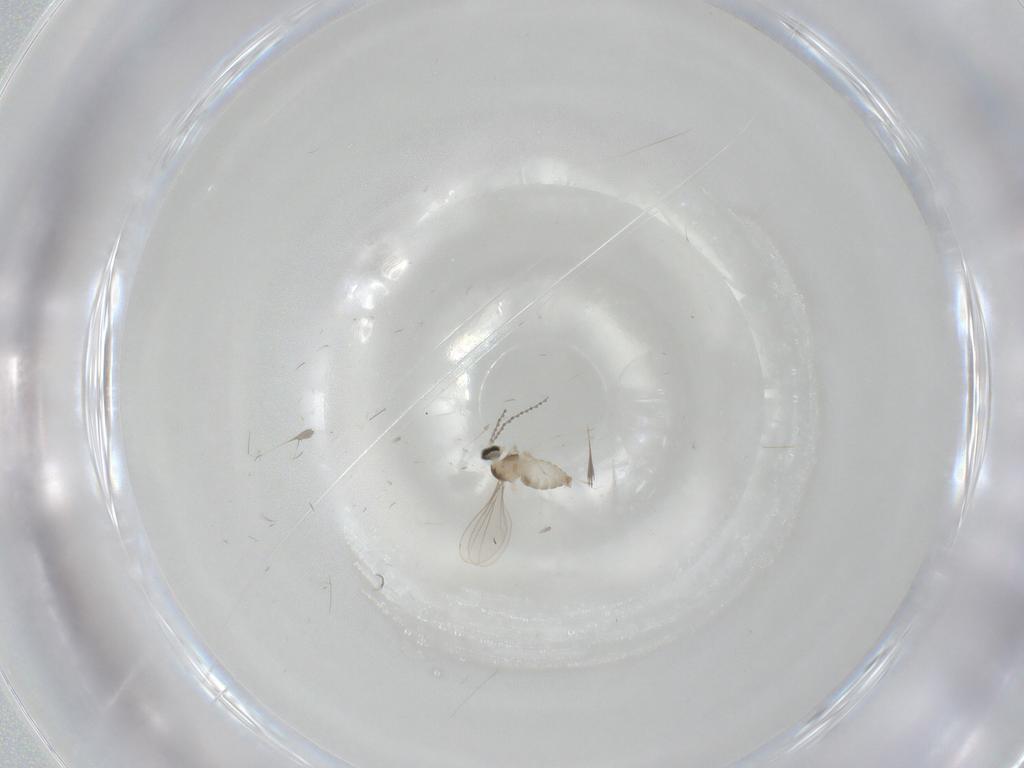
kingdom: Animalia
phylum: Arthropoda
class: Insecta
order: Diptera
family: Cecidomyiidae
